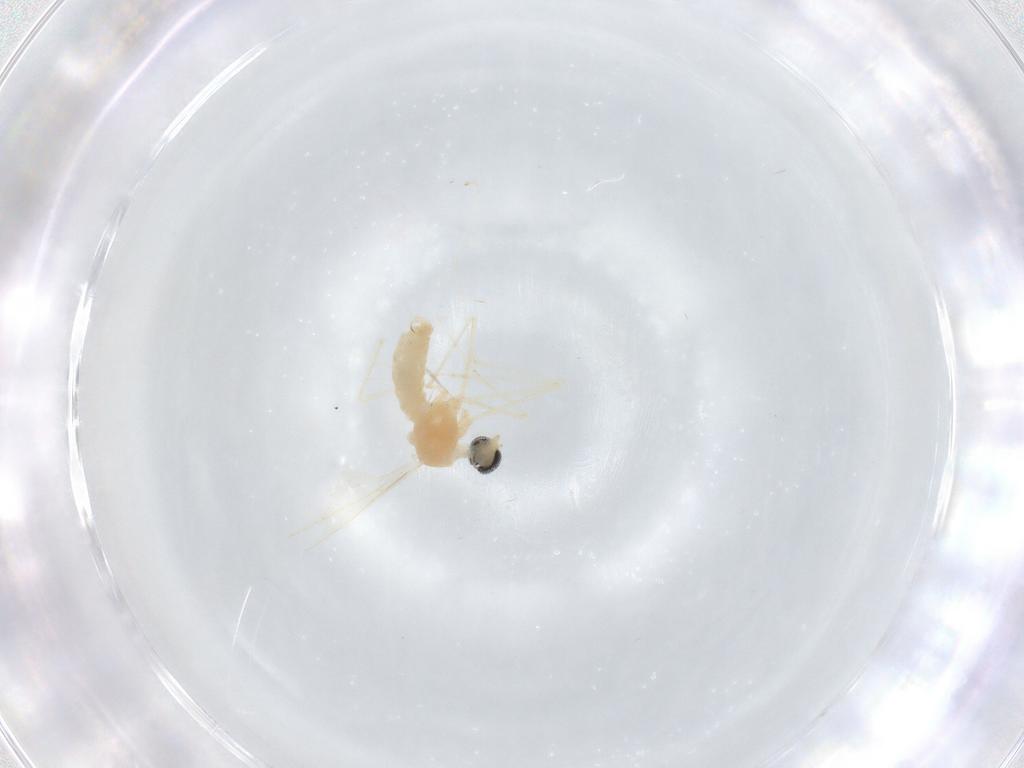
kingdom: Animalia
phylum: Arthropoda
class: Insecta
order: Diptera
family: Cecidomyiidae
